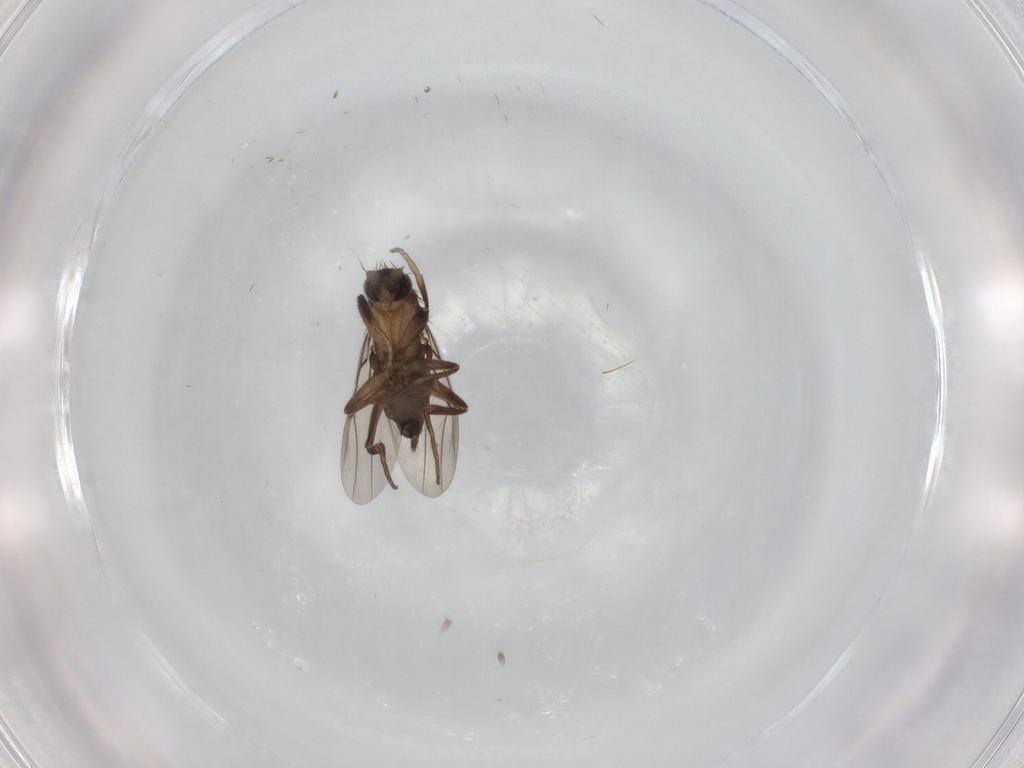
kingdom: Animalia
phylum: Arthropoda
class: Insecta
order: Diptera
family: Phoridae
